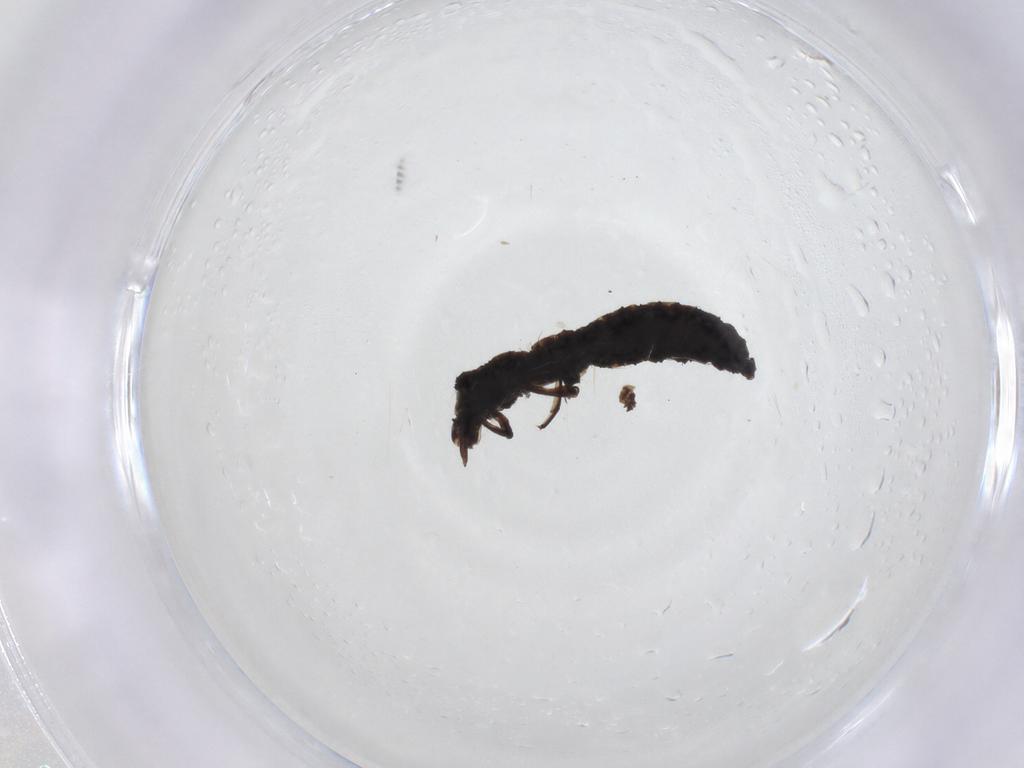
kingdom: Animalia
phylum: Arthropoda
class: Insecta
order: Neuroptera
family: Hemerobiidae
